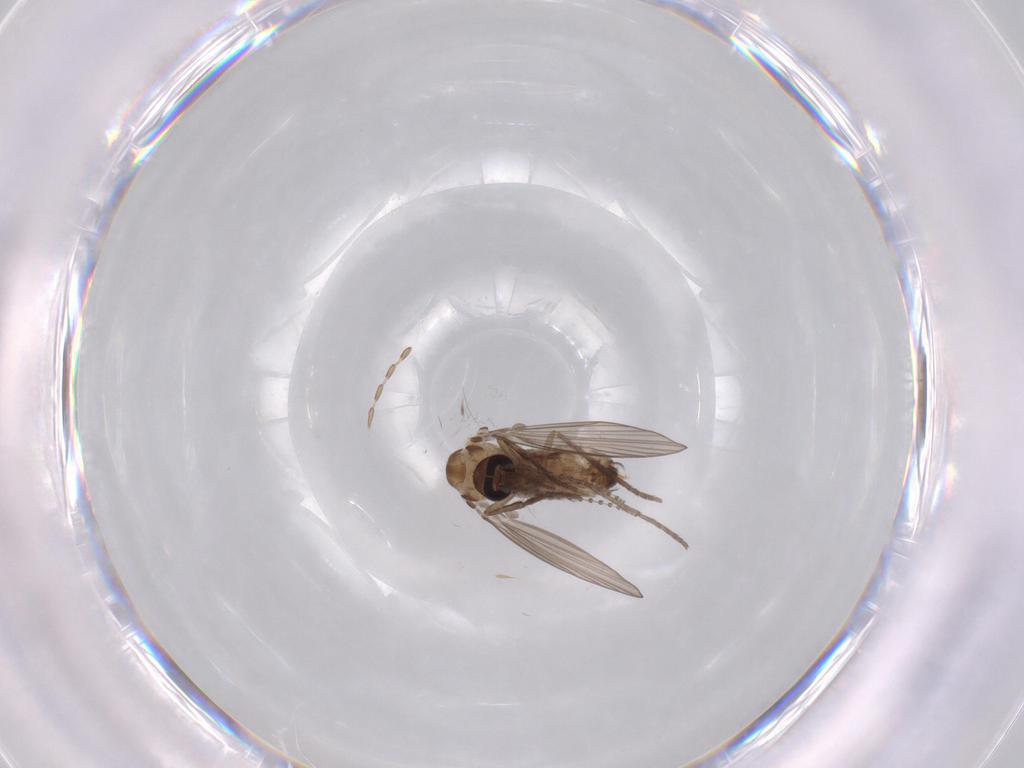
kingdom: Animalia
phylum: Arthropoda
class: Insecta
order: Diptera
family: Psychodidae
